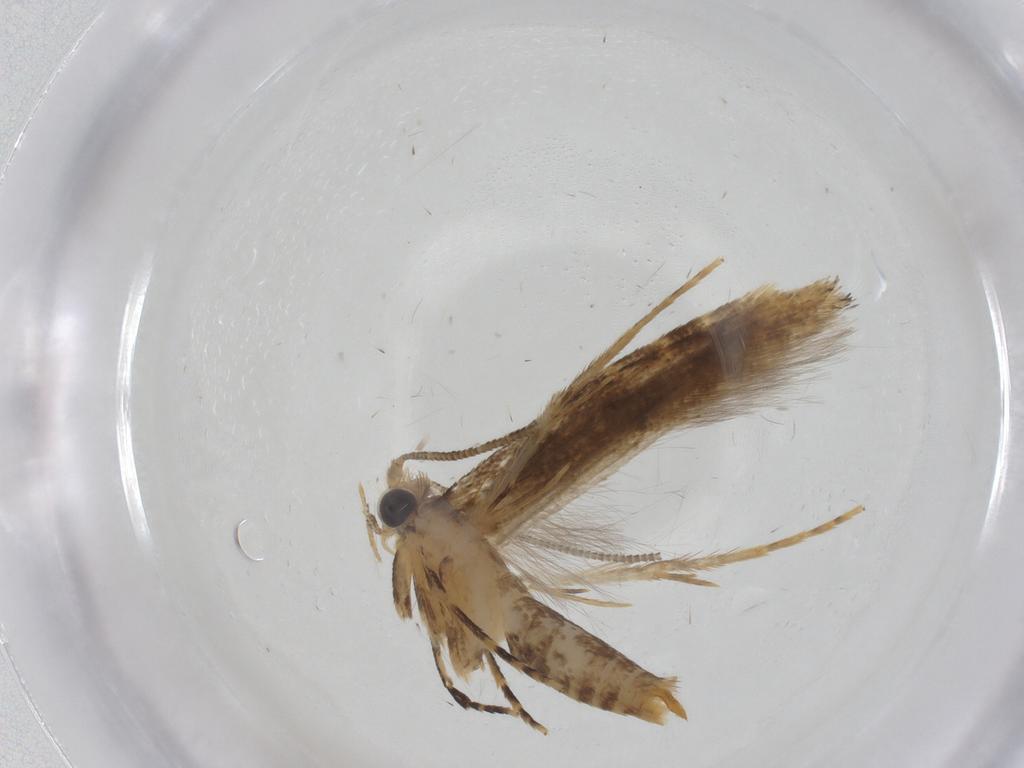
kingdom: Animalia
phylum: Arthropoda
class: Insecta
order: Lepidoptera
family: Tineidae
